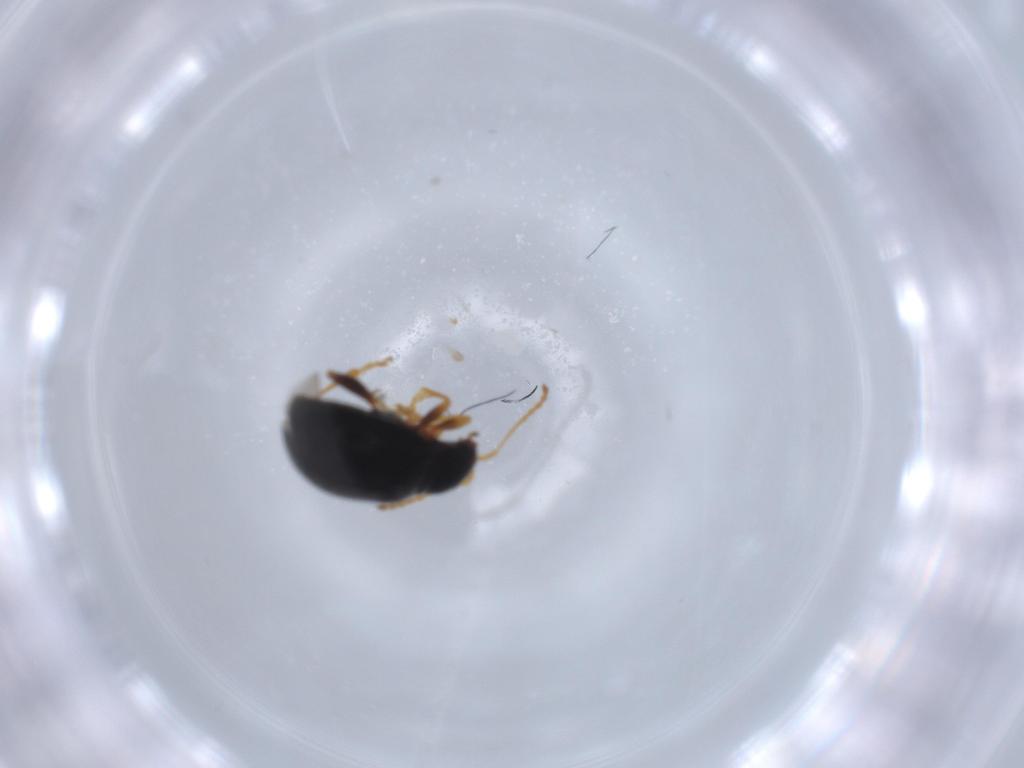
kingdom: Animalia
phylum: Arthropoda
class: Insecta
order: Coleoptera
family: Chrysomelidae
